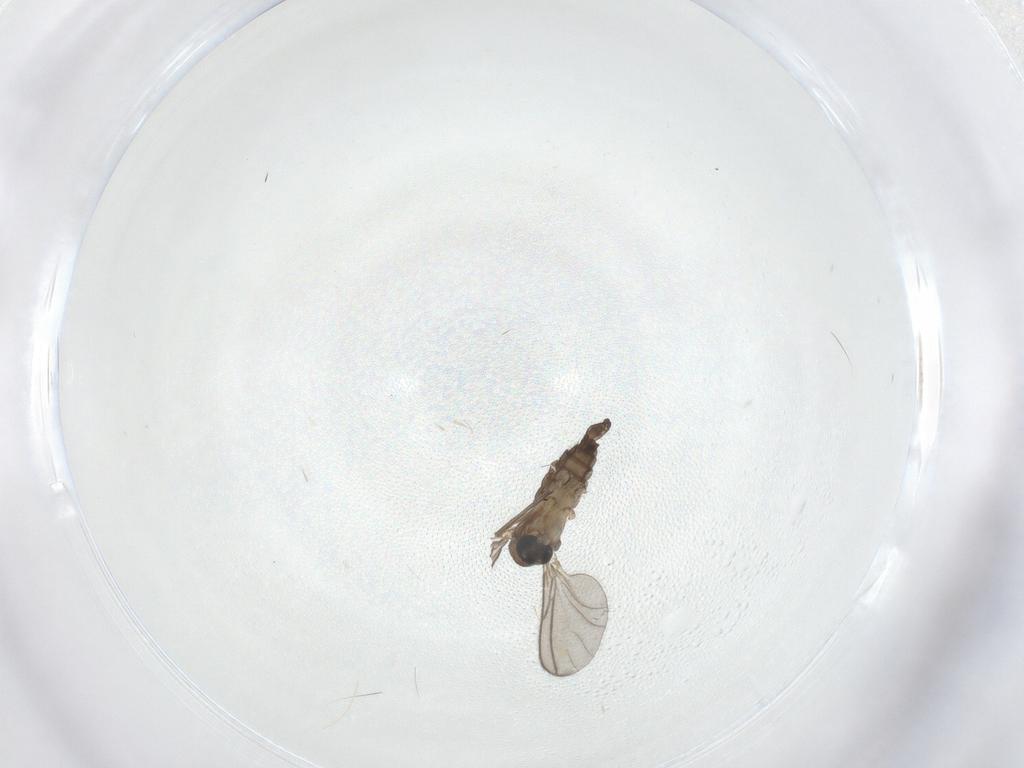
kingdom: Animalia
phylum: Arthropoda
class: Insecta
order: Diptera
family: Sciaridae
